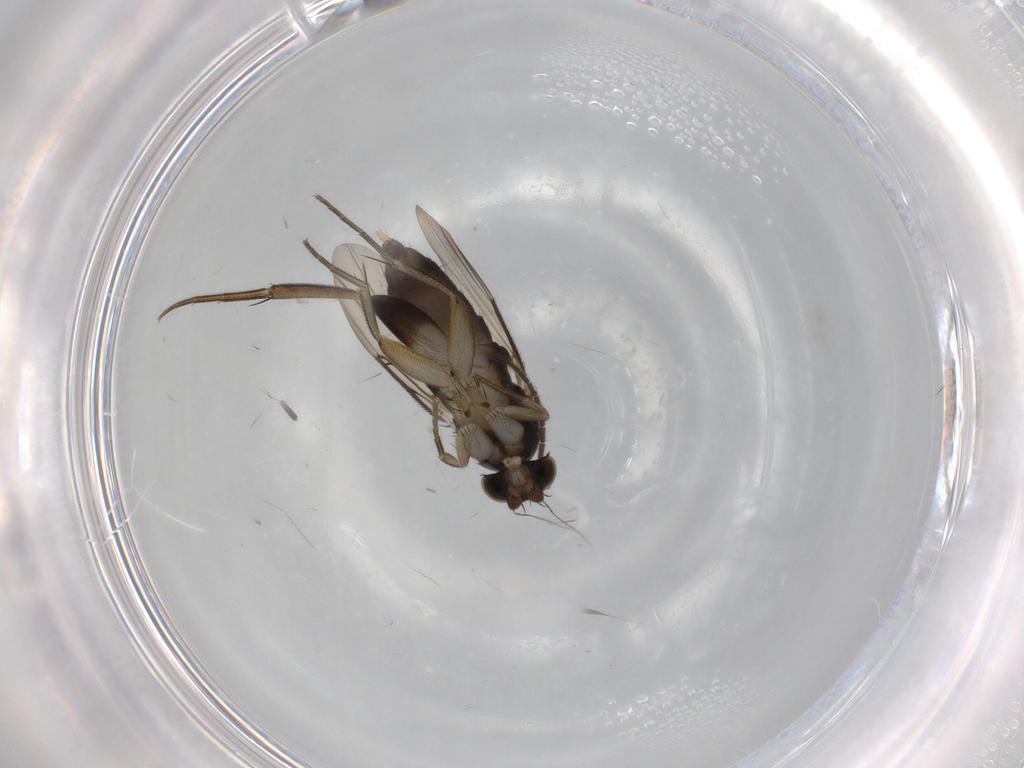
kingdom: Animalia
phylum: Arthropoda
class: Insecta
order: Diptera
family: Phoridae
